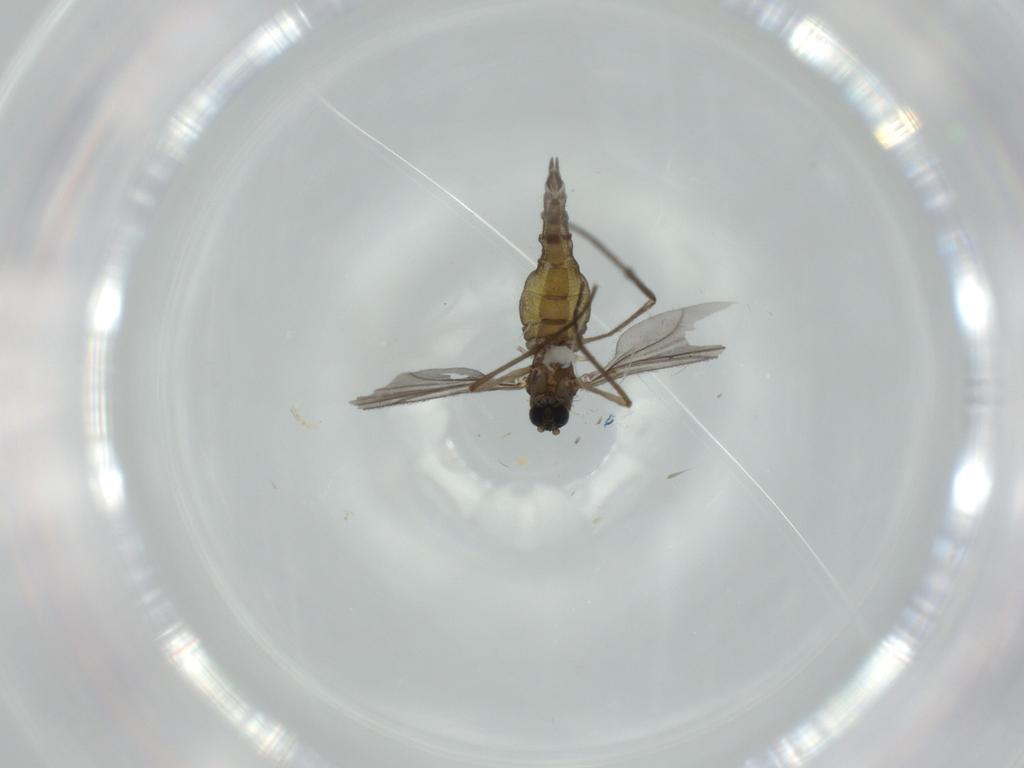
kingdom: Animalia
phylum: Arthropoda
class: Insecta
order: Diptera
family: Sciaridae
